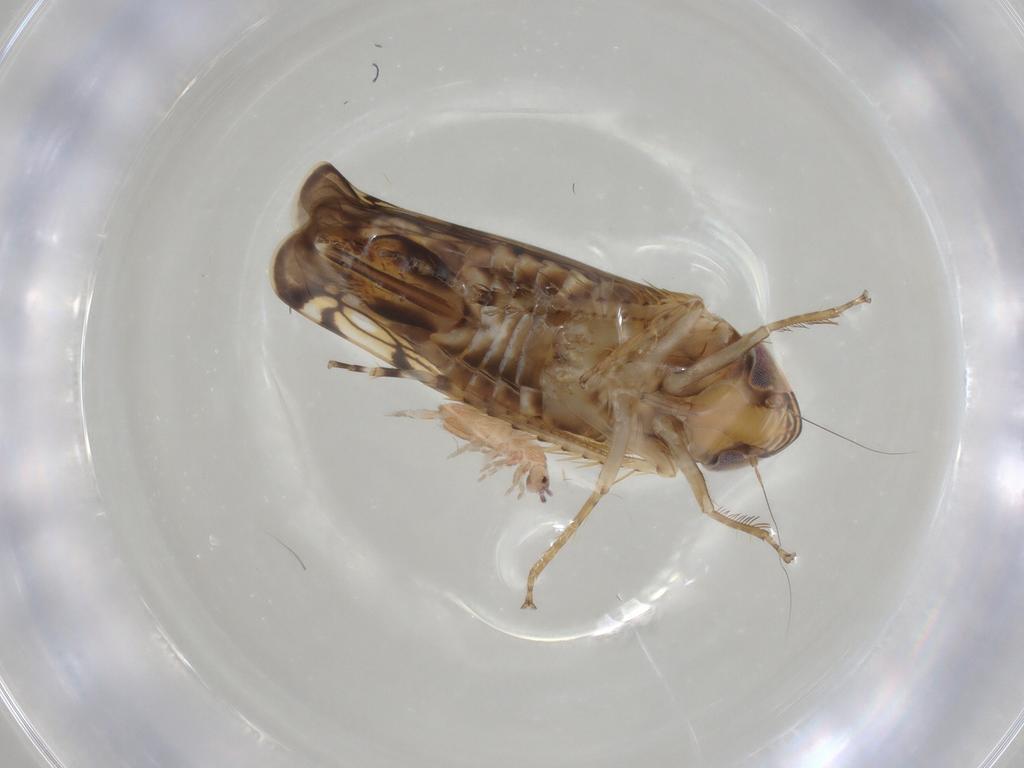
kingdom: Animalia
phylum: Arthropoda
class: Insecta
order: Hemiptera
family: Cicadellidae
